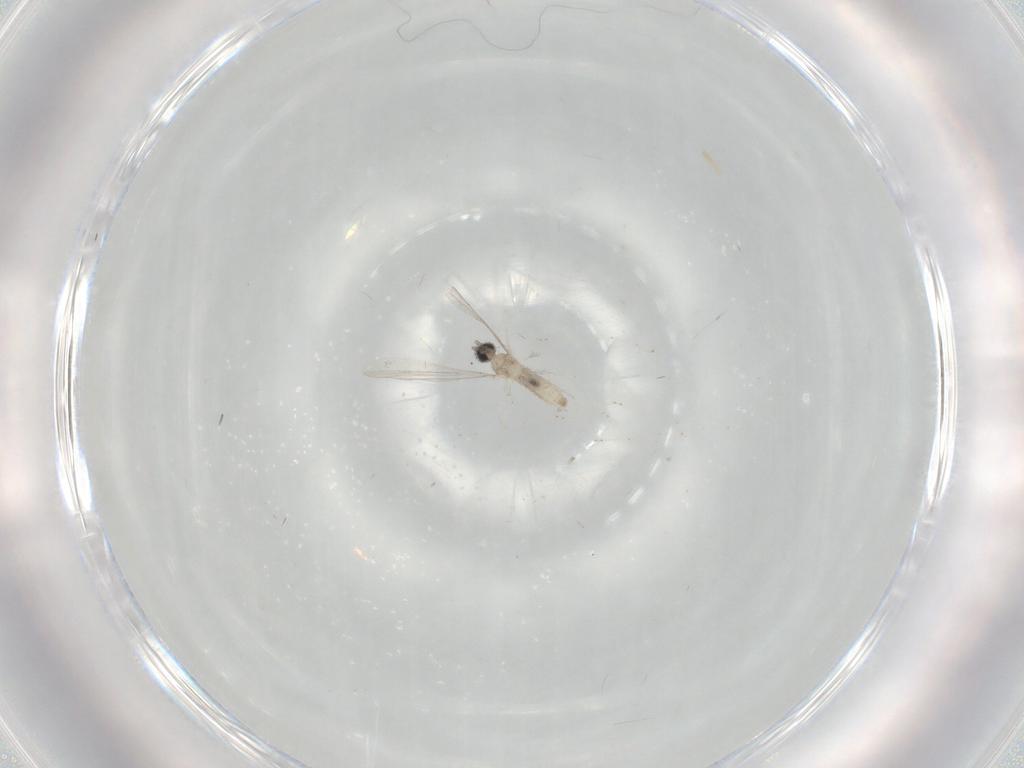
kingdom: Animalia
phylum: Arthropoda
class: Insecta
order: Diptera
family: Cecidomyiidae
